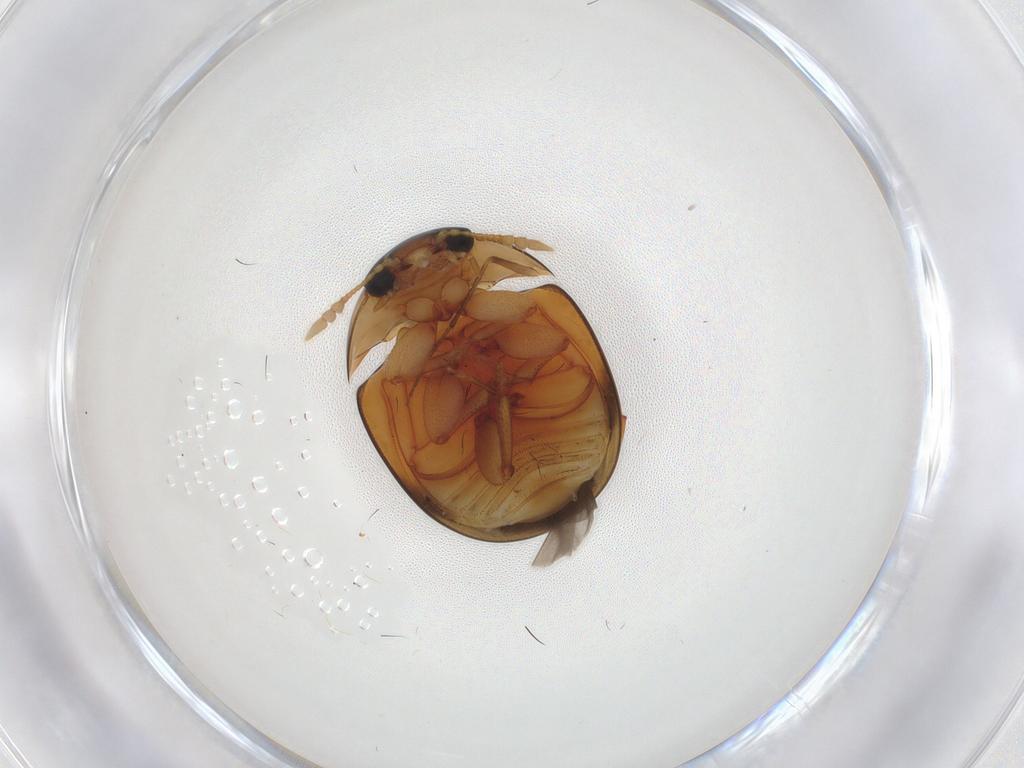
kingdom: Animalia
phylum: Arthropoda
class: Insecta
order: Coleoptera
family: Phalacridae
